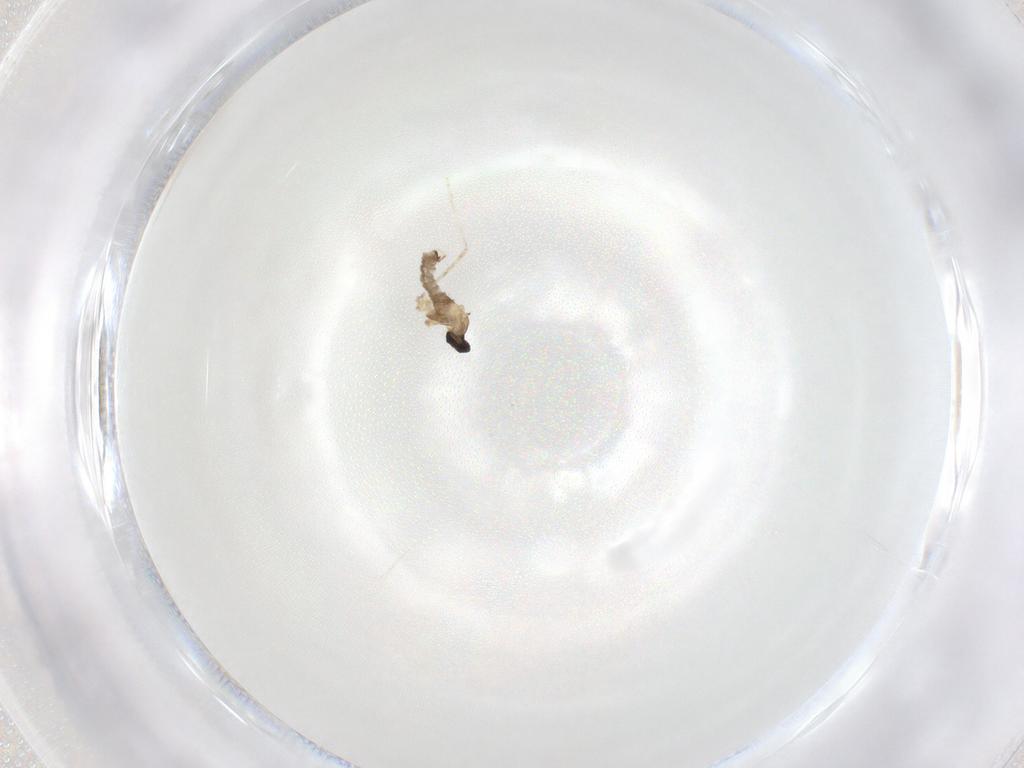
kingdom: Animalia
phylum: Arthropoda
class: Insecta
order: Diptera
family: Cecidomyiidae
